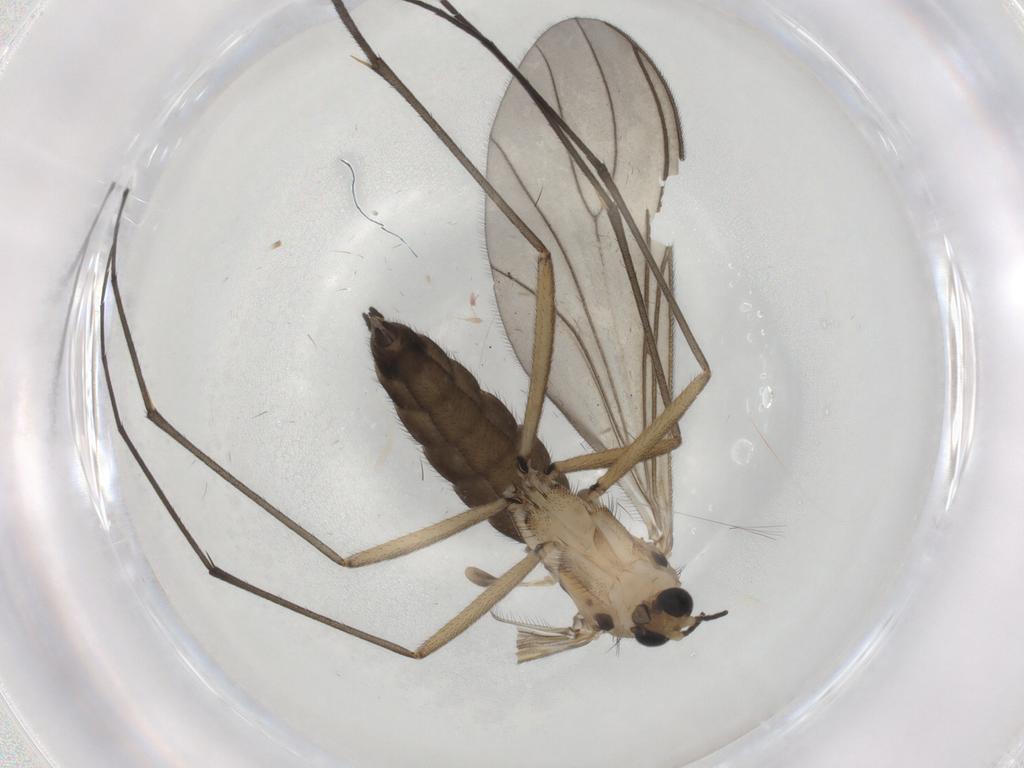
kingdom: Animalia
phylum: Arthropoda
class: Insecta
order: Diptera
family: Sciaridae
